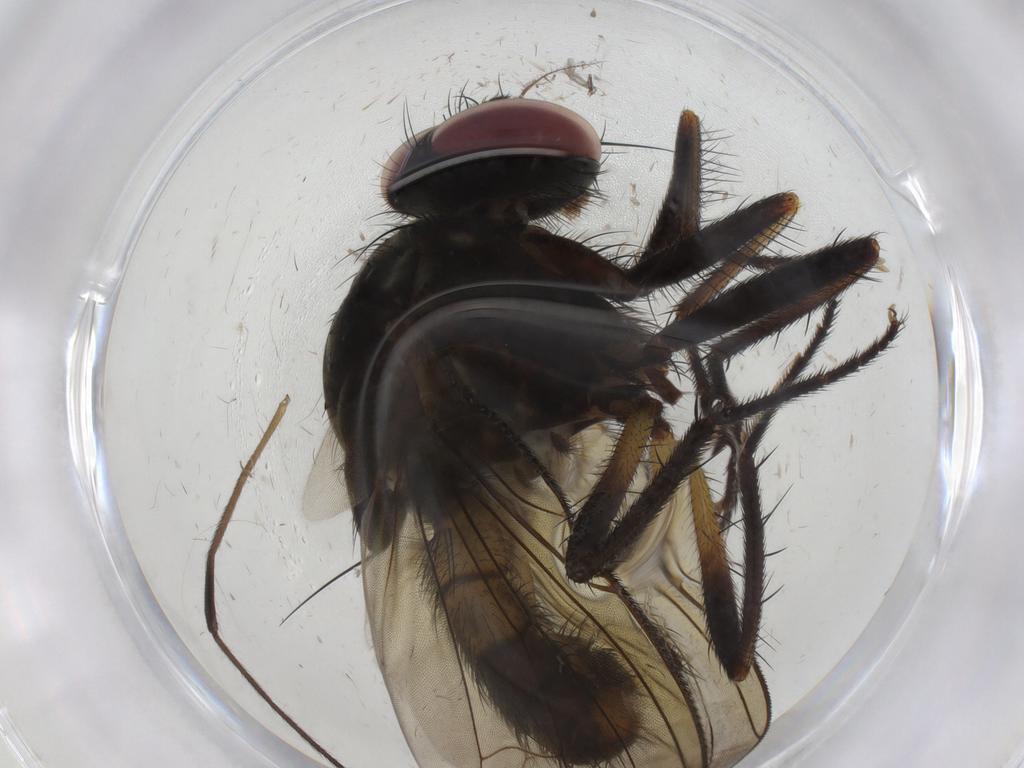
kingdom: Animalia
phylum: Arthropoda
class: Insecta
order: Diptera
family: Anthomyiidae
